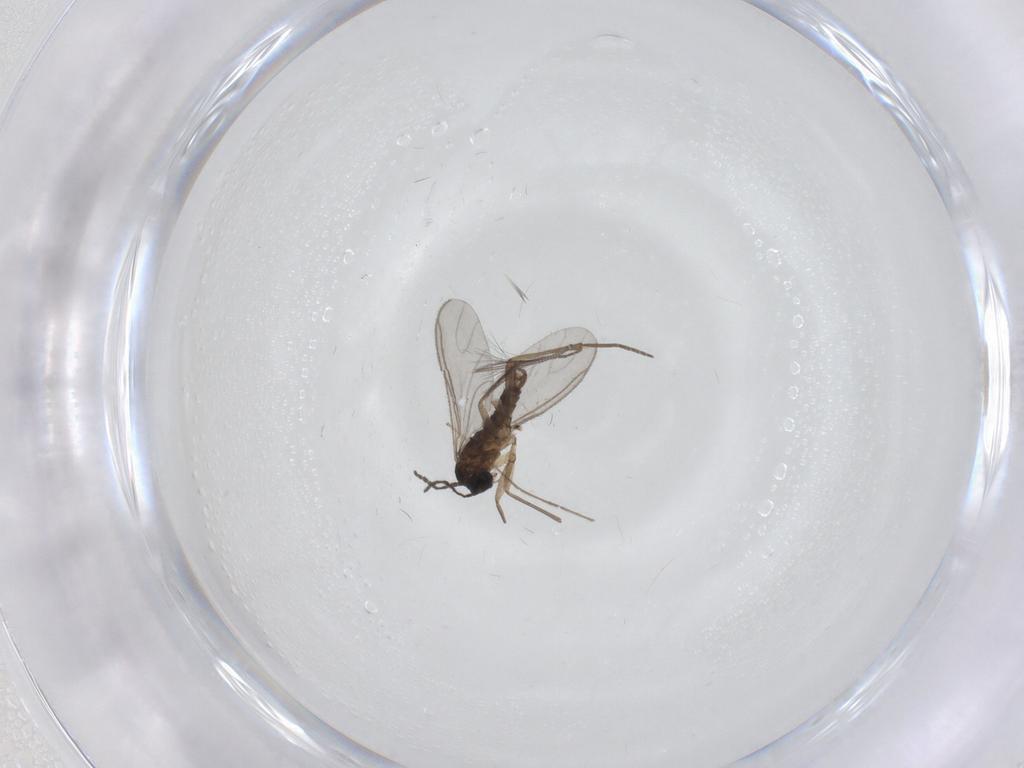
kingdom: Animalia
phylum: Arthropoda
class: Insecta
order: Diptera
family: Sciaridae
